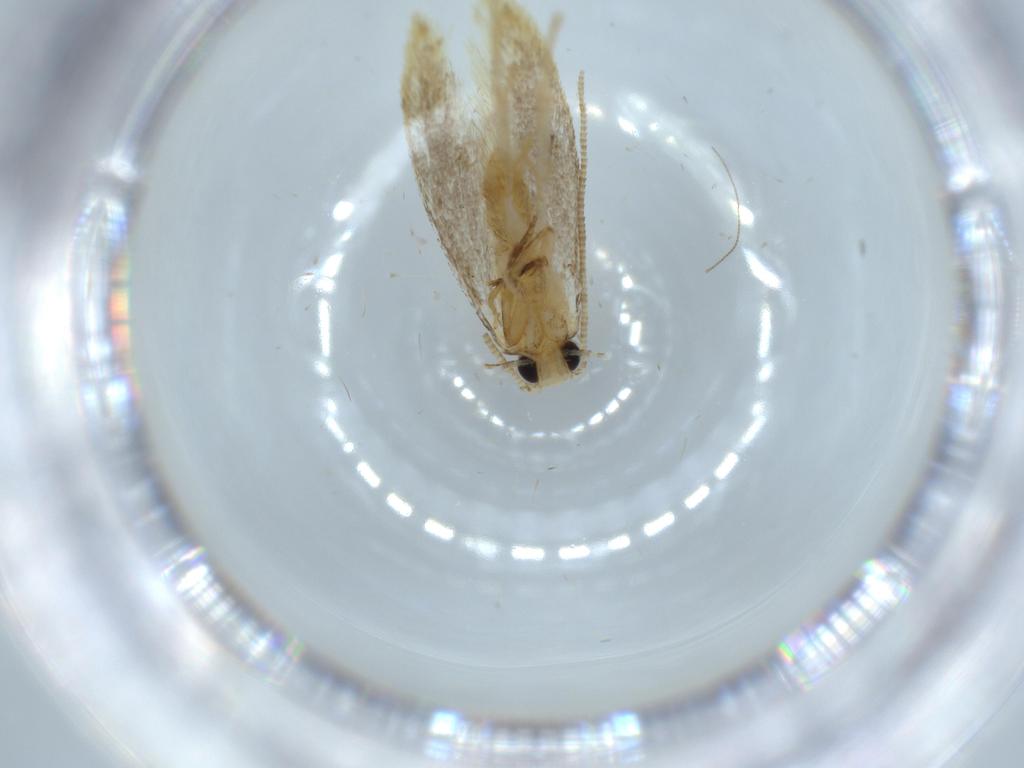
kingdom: Animalia
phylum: Arthropoda
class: Insecta
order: Lepidoptera
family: Tineidae
